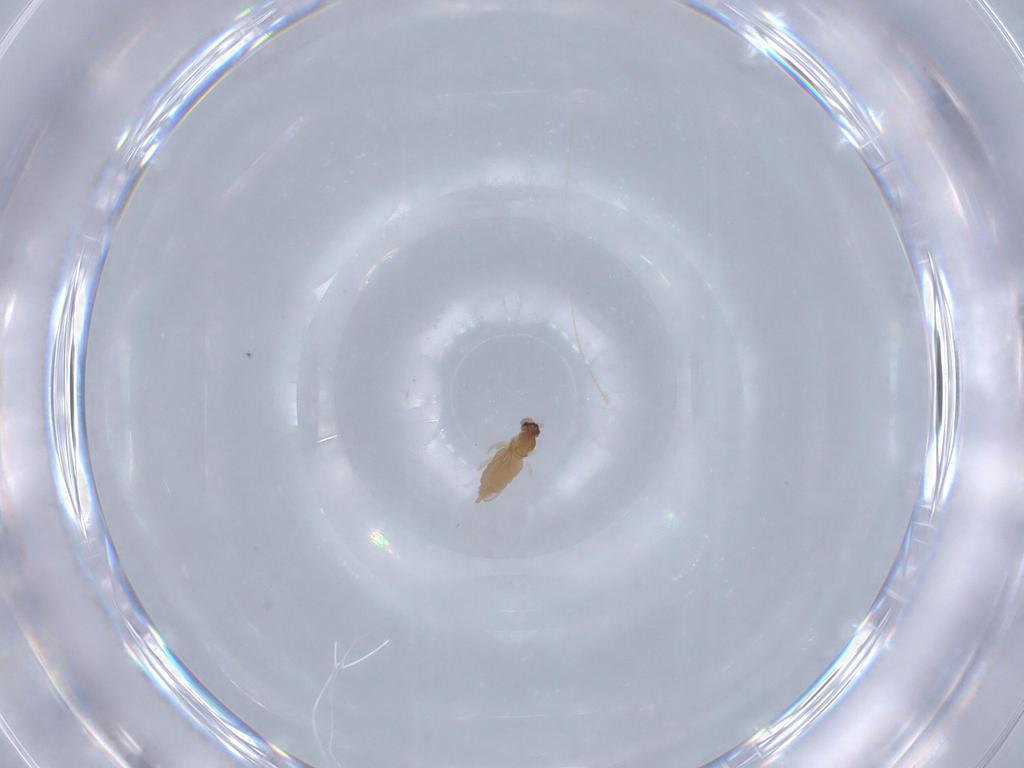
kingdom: Animalia
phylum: Arthropoda
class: Insecta
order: Diptera
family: Cecidomyiidae
